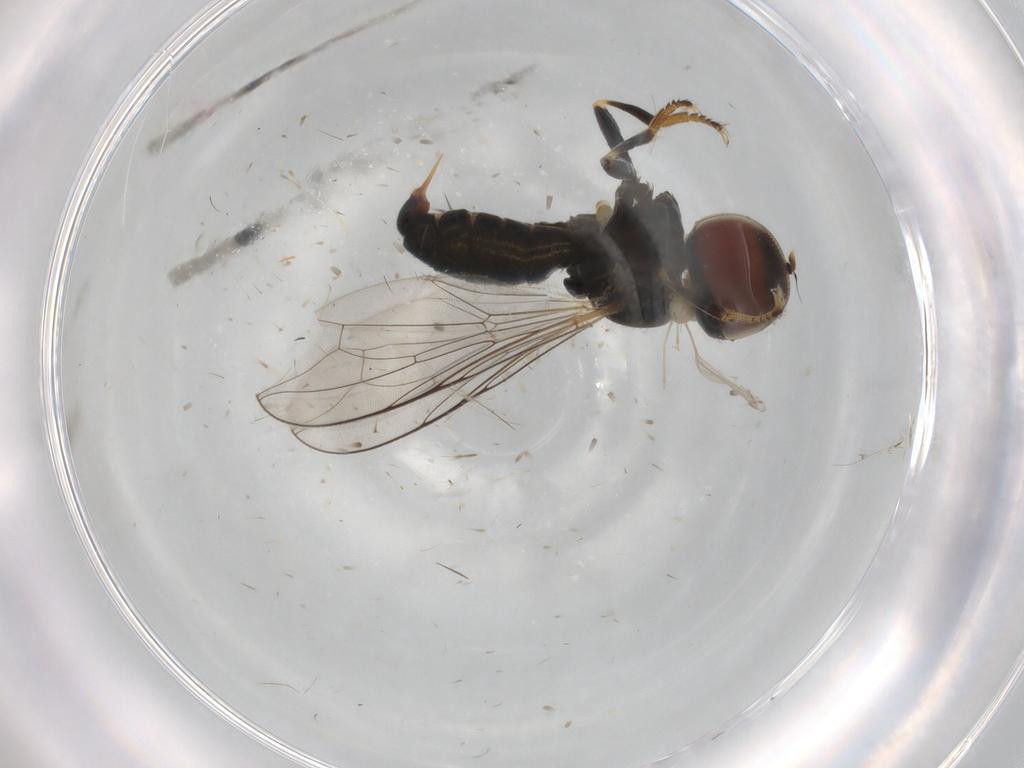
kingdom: Animalia
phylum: Arthropoda
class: Insecta
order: Diptera
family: Pipunculidae
